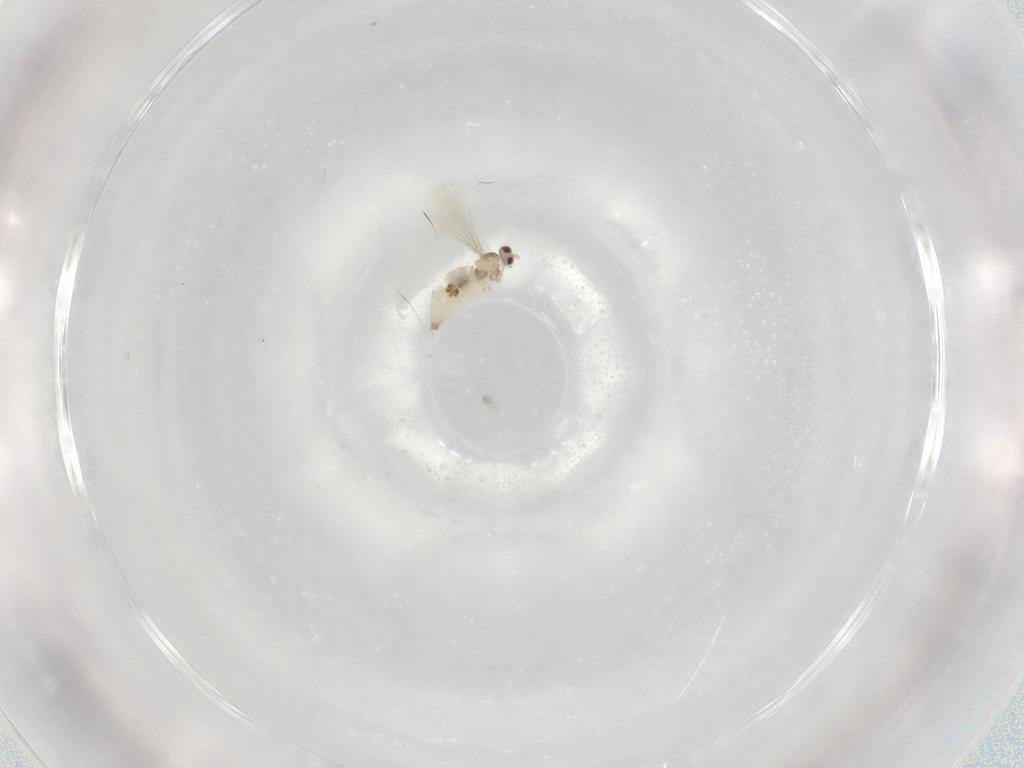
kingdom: Animalia
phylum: Arthropoda
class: Insecta
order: Diptera
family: Cecidomyiidae
